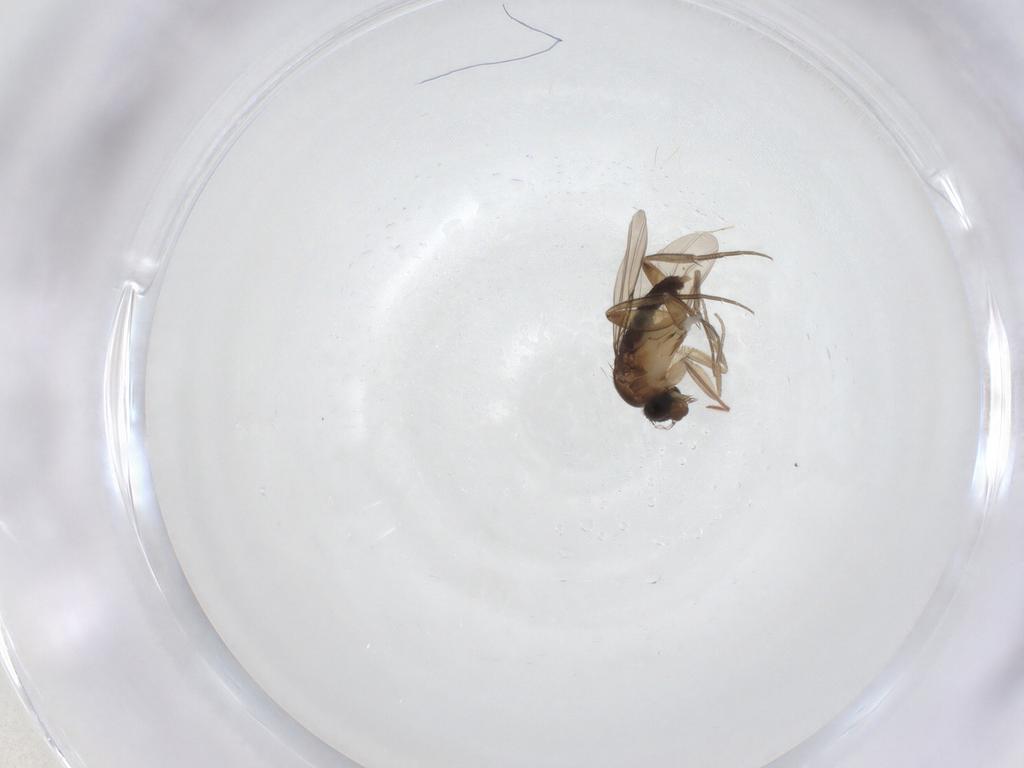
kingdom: Animalia
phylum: Arthropoda
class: Insecta
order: Diptera
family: Phoridae
